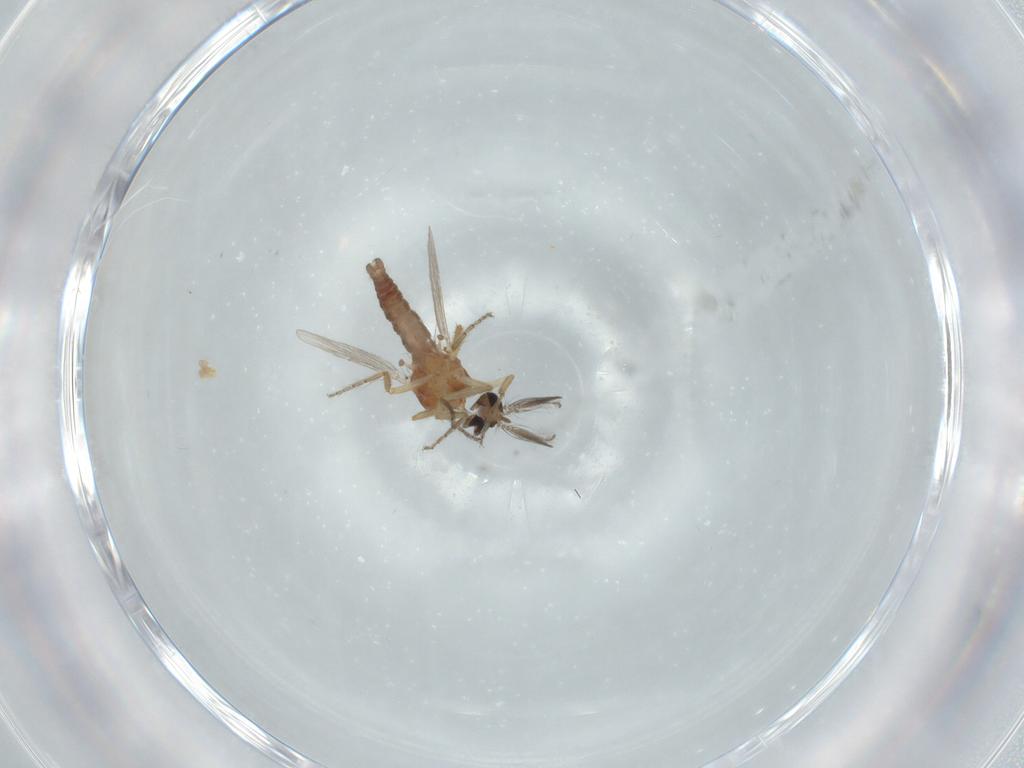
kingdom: Animalia
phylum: Arthropoda
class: Insecta
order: Diptera
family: Ceratopogonidae
